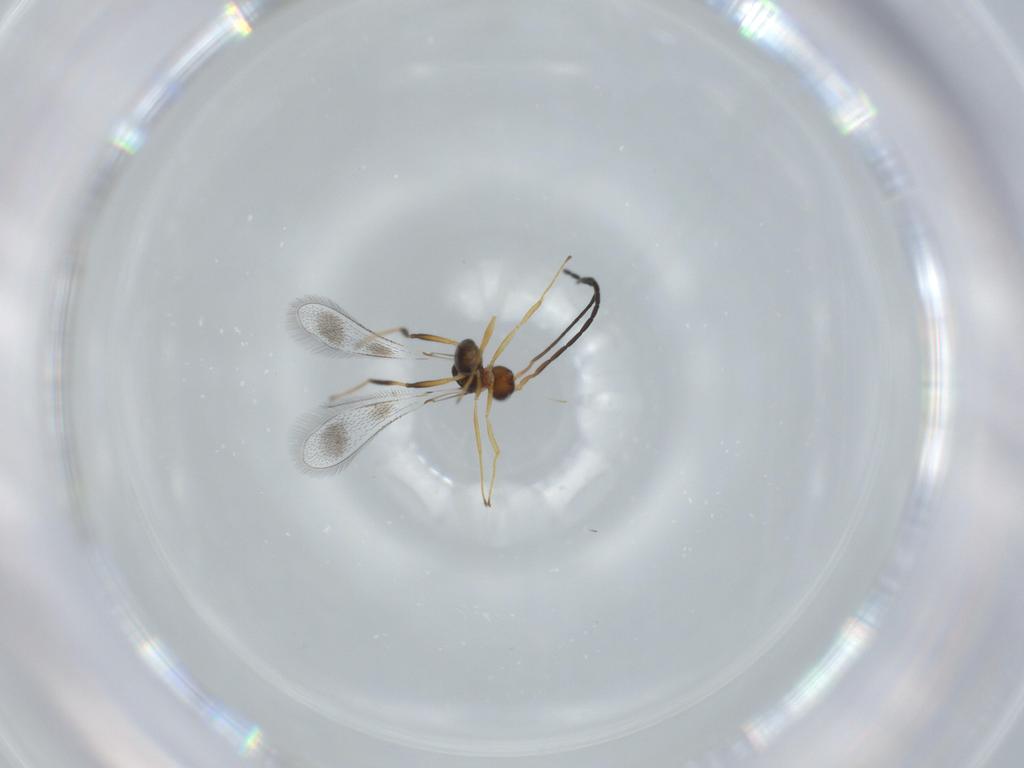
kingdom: Animalia
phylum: Arthropoda
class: Insecta
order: Hymenoptera
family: Mymaridae
